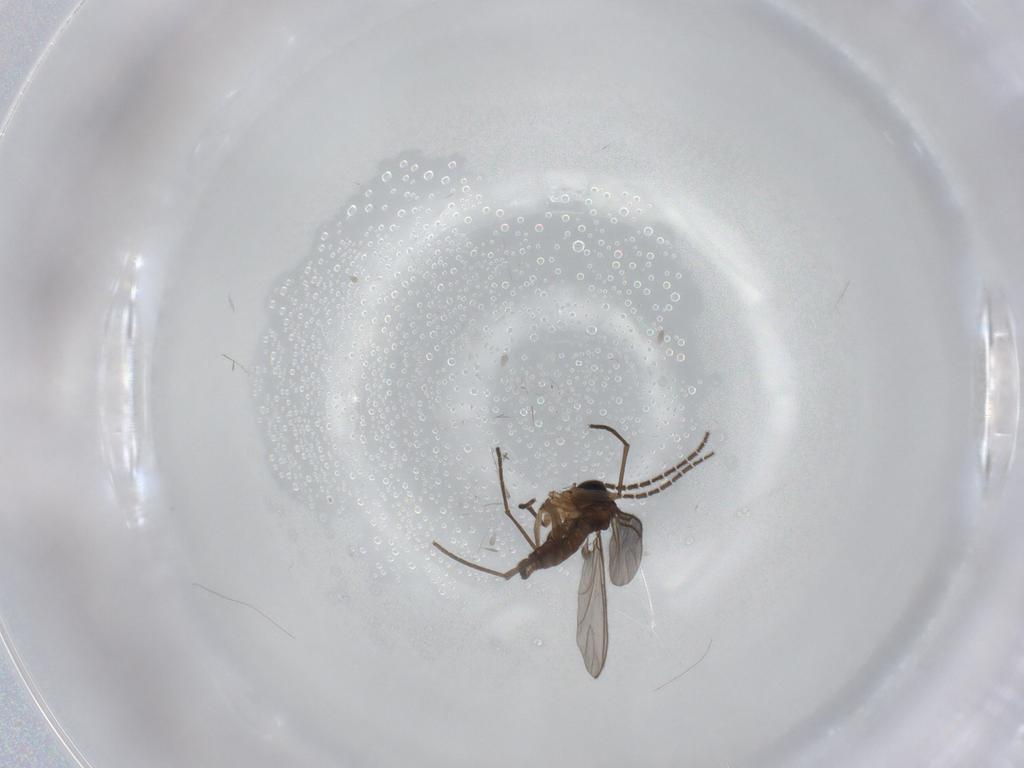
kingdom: Animalia
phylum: Arthropoda
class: Insecta
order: Diptera
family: Sciaridae
